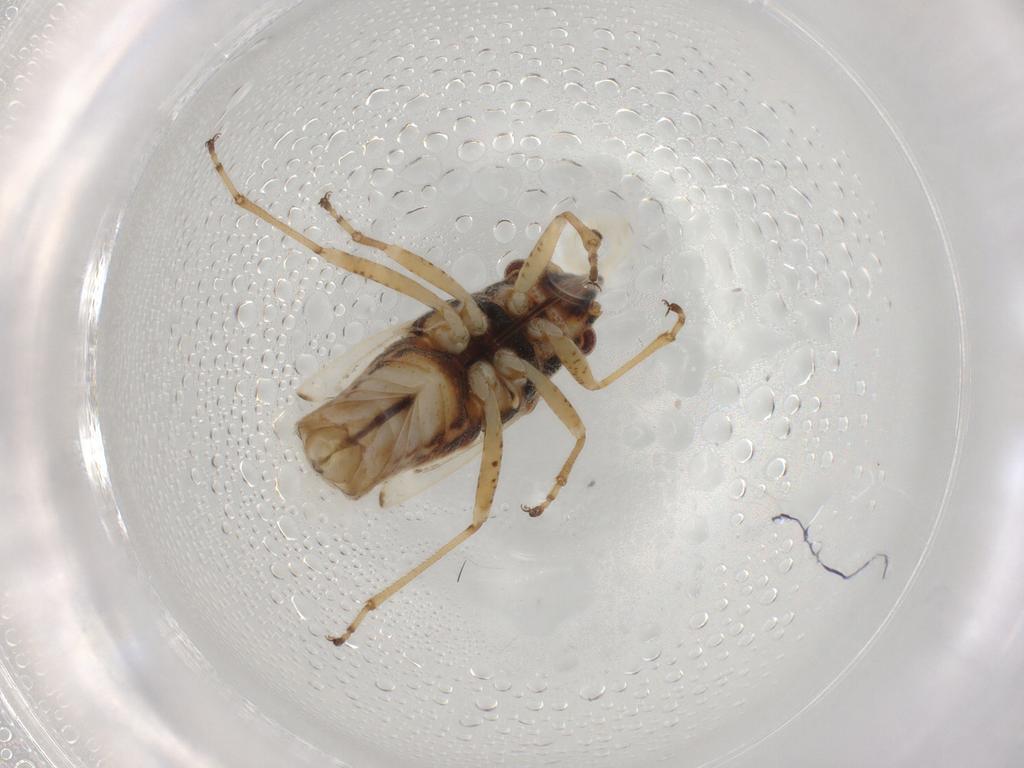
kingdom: Animalia
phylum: Arthropoda
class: Insecta
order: Hemiptera
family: Lygaeidae
